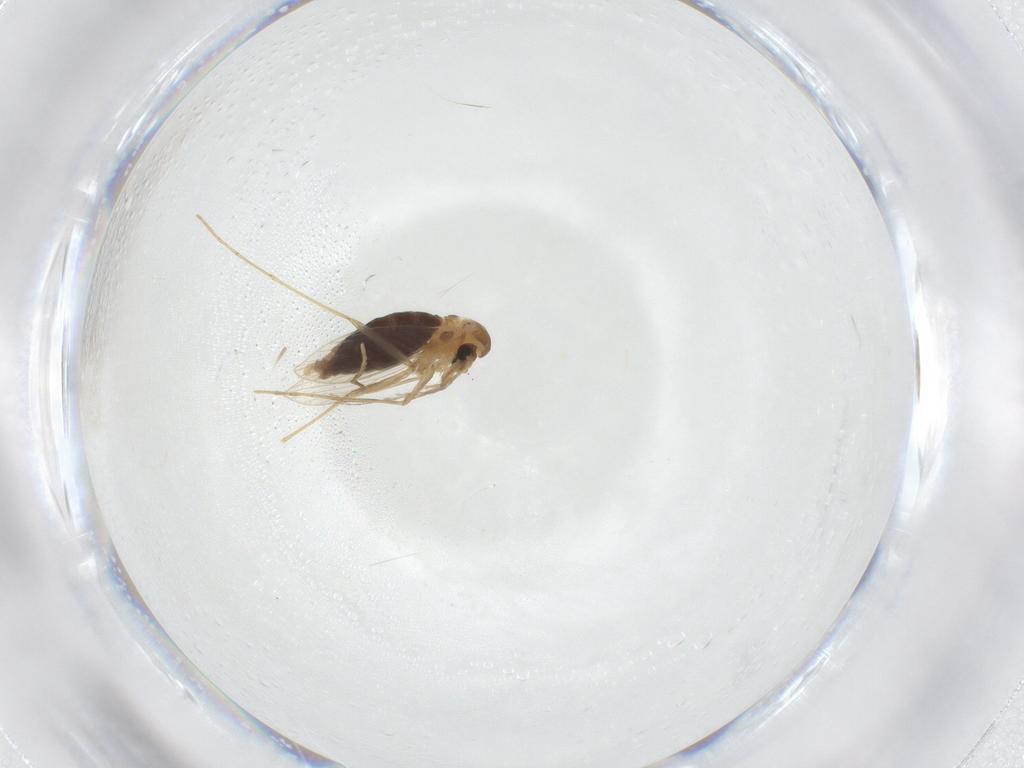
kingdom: Animalia
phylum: Arthropoda
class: Insecta
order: Diptera
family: Psychodidae
